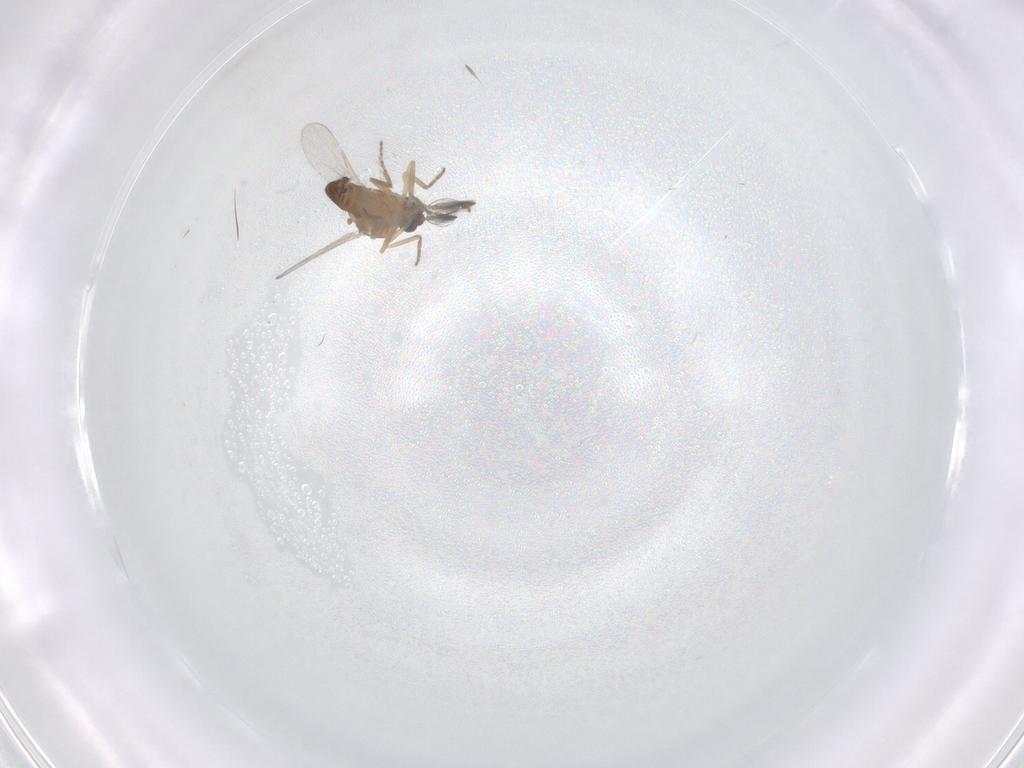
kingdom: Animalia
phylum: Arthropoda
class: Insecta
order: Diptera
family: Ceratopogonidae
